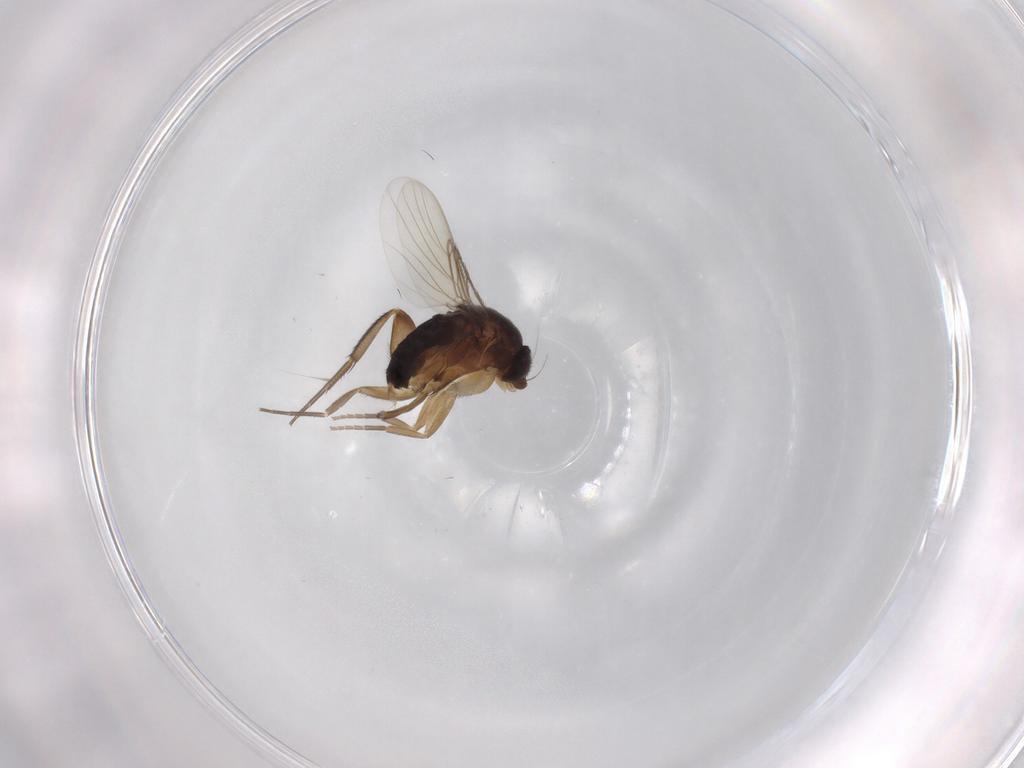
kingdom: Animalia
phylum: Arthropoda
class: Insecta
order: Diptera
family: Phoridae
